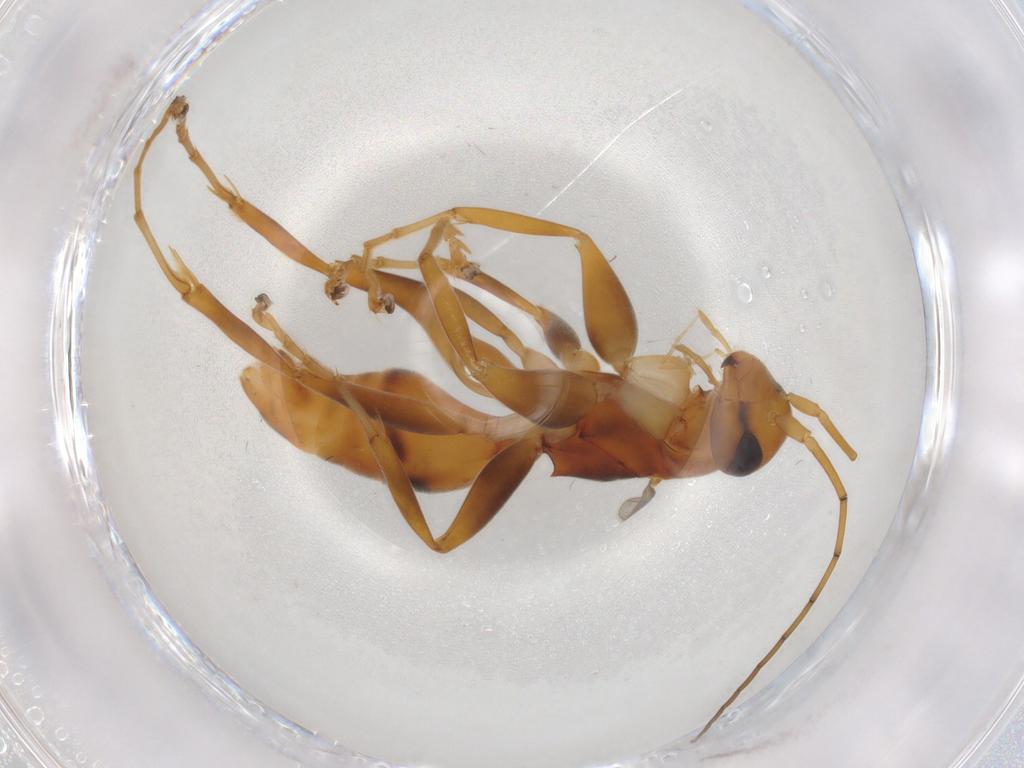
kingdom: Animalia
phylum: Arthropoda
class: Insecta
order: Hymenoptera
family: Rhopalosomatidae
